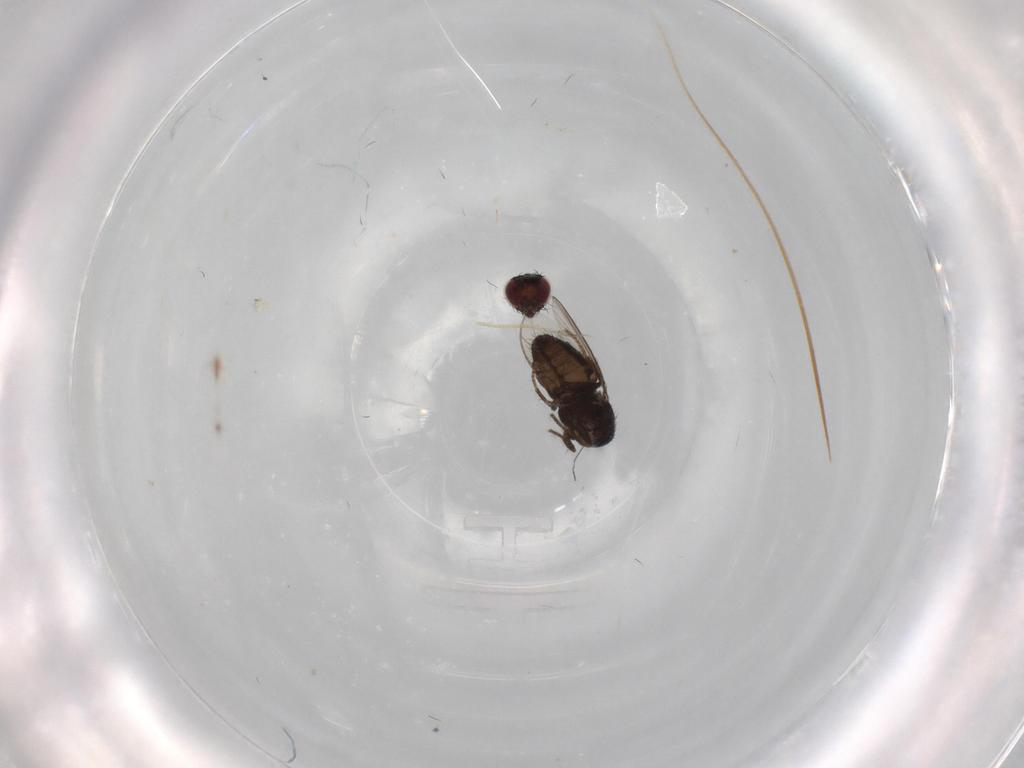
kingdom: Animalia
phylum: Arthropoda
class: Insecta
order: Diptera
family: Carnidae
